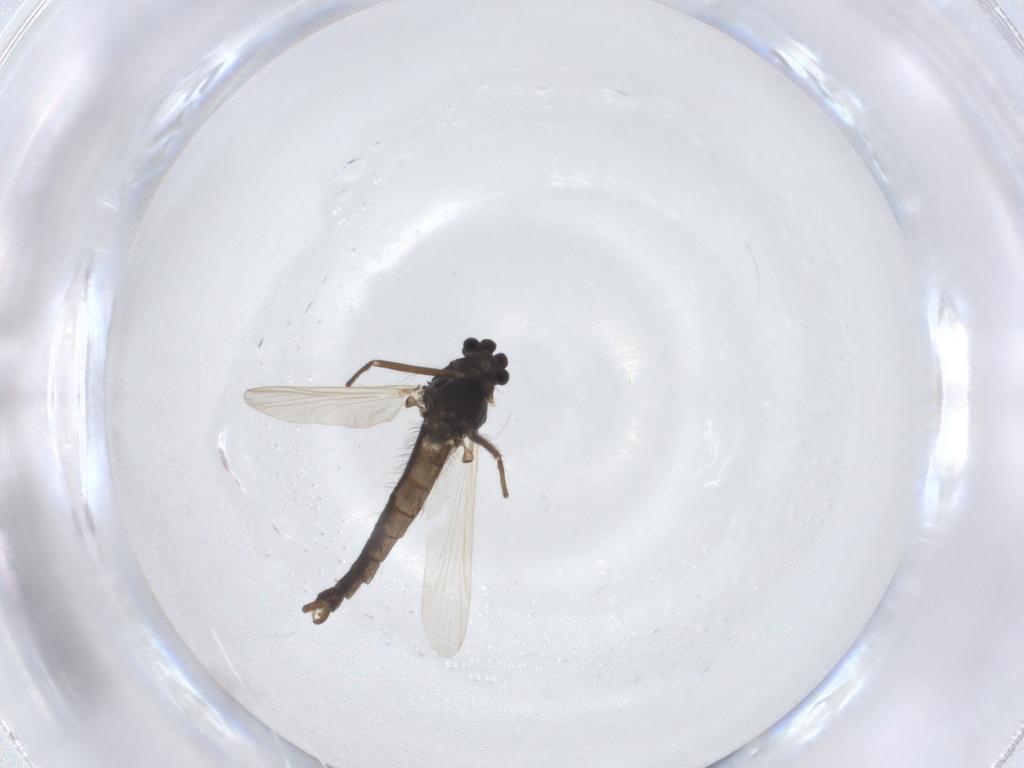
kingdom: Animalia
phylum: Arthropoda
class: Insecta
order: Diptera
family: Chironomidae
